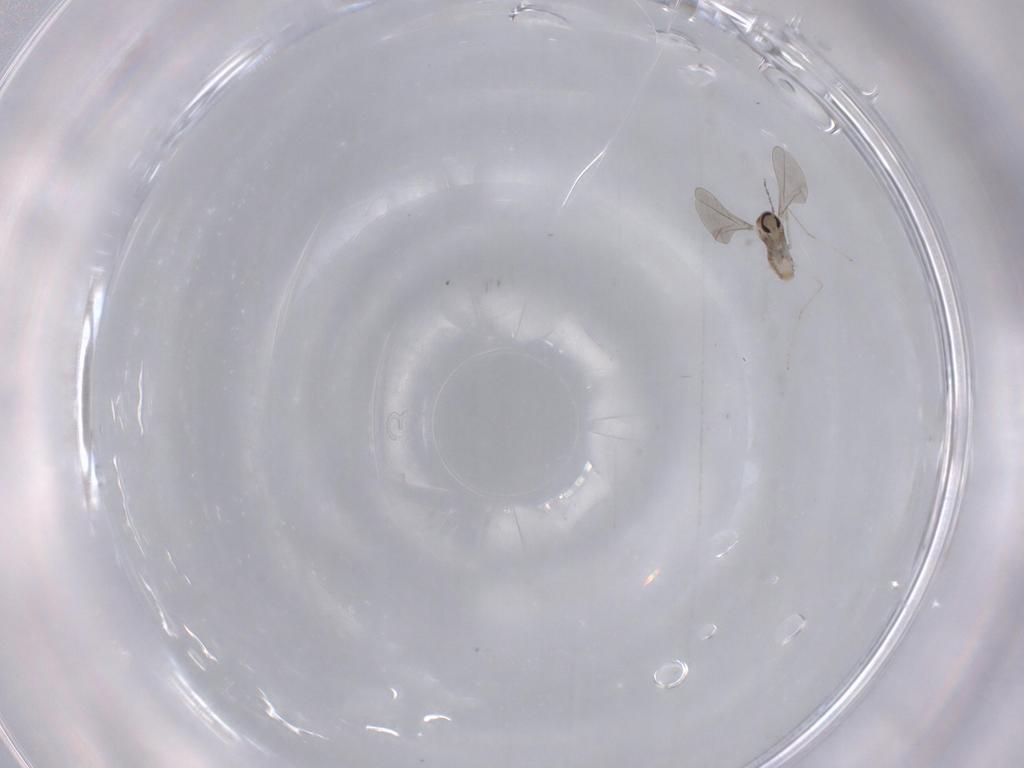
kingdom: Animalia
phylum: Arthropoda
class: Insecta
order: Diptera
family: Cecidomyiidae
